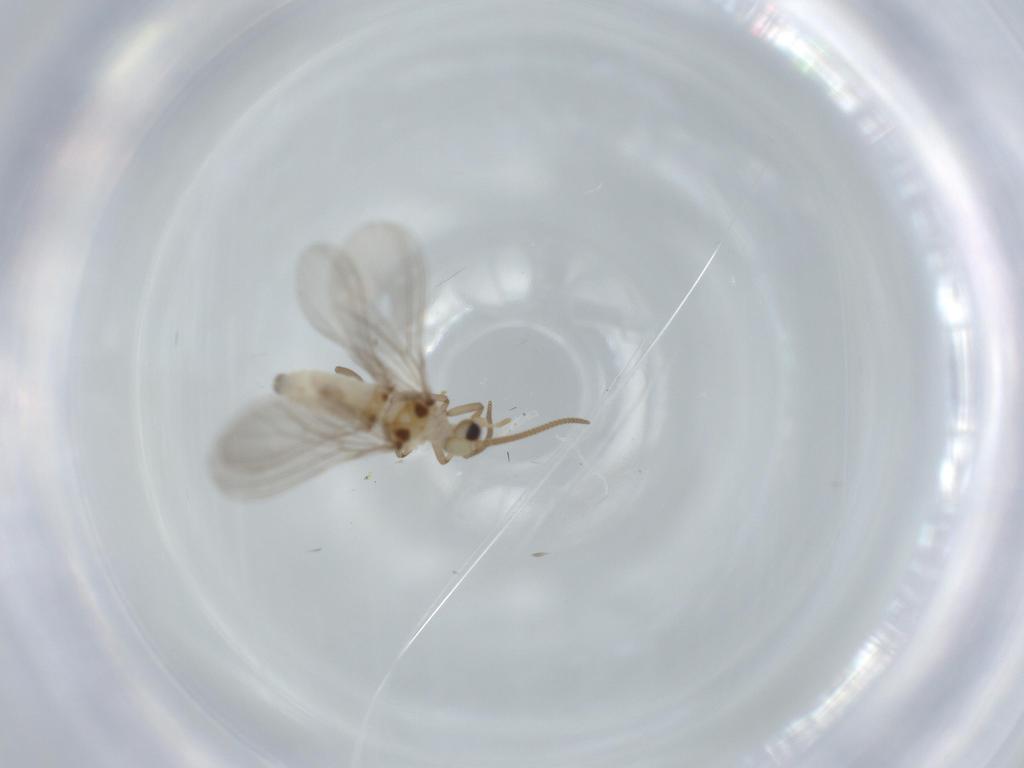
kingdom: Animalia
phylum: Arthropoda
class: Insecta
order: Neuroptera
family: Coniopterygidae
